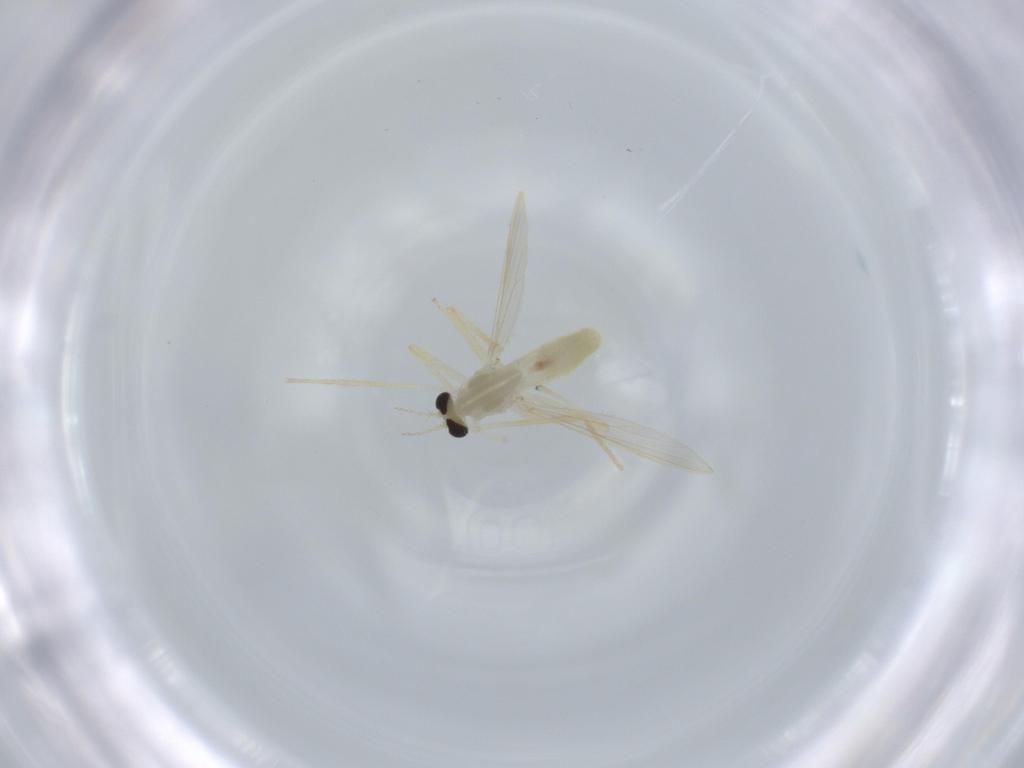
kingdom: Animalia
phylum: Arthropoda
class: Insecta
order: Diptera
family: Chironomidae
